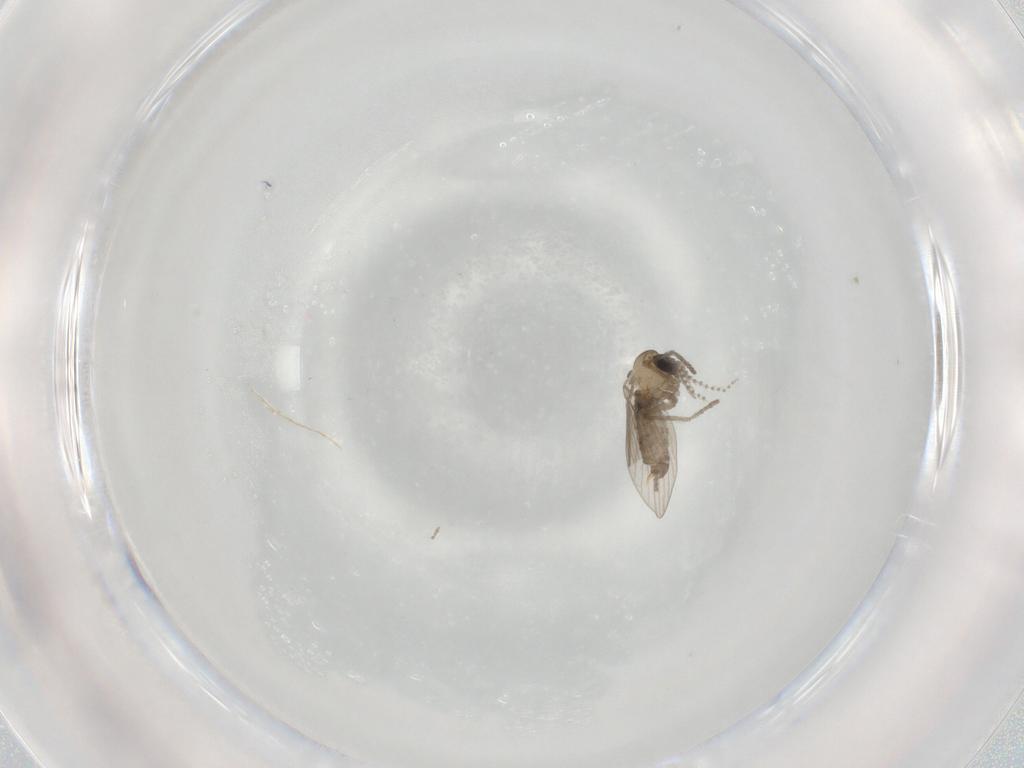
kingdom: Animalia
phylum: Arthropoda
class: Insecta
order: Diptera
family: Psychodidae
